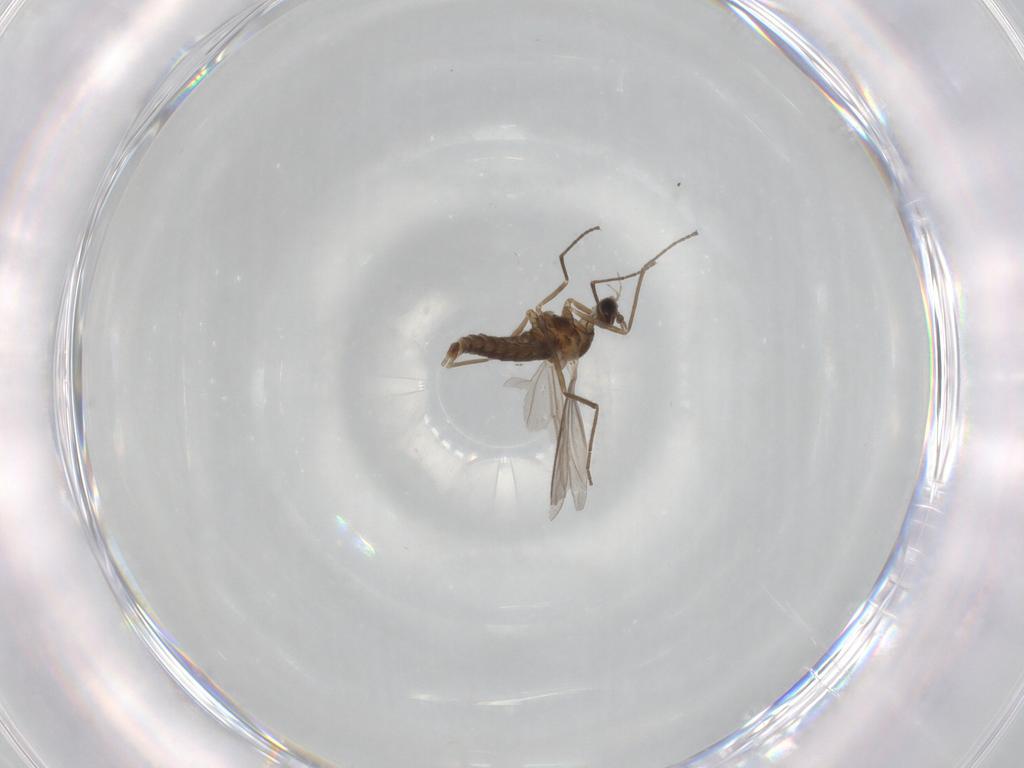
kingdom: Animalia
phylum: Arthropoda
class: Insecta
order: Diptera
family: Cecidomyiidae
